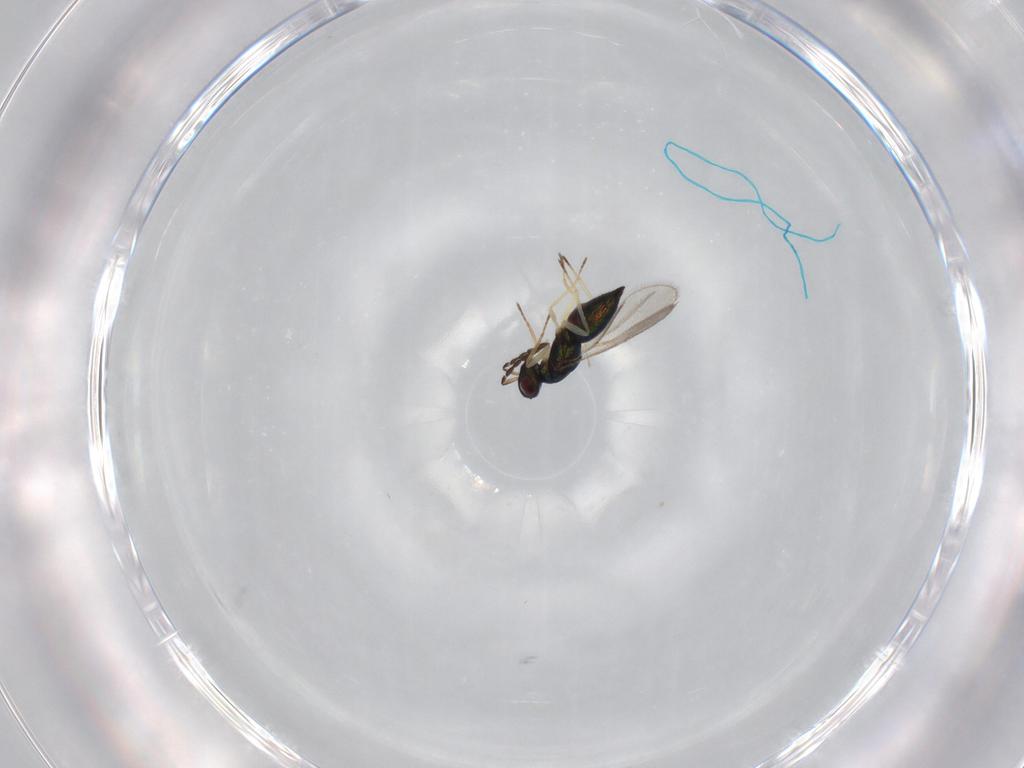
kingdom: Animalia
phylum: Arthropoda
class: Insecta
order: Hymenoptera
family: Eulophidae
